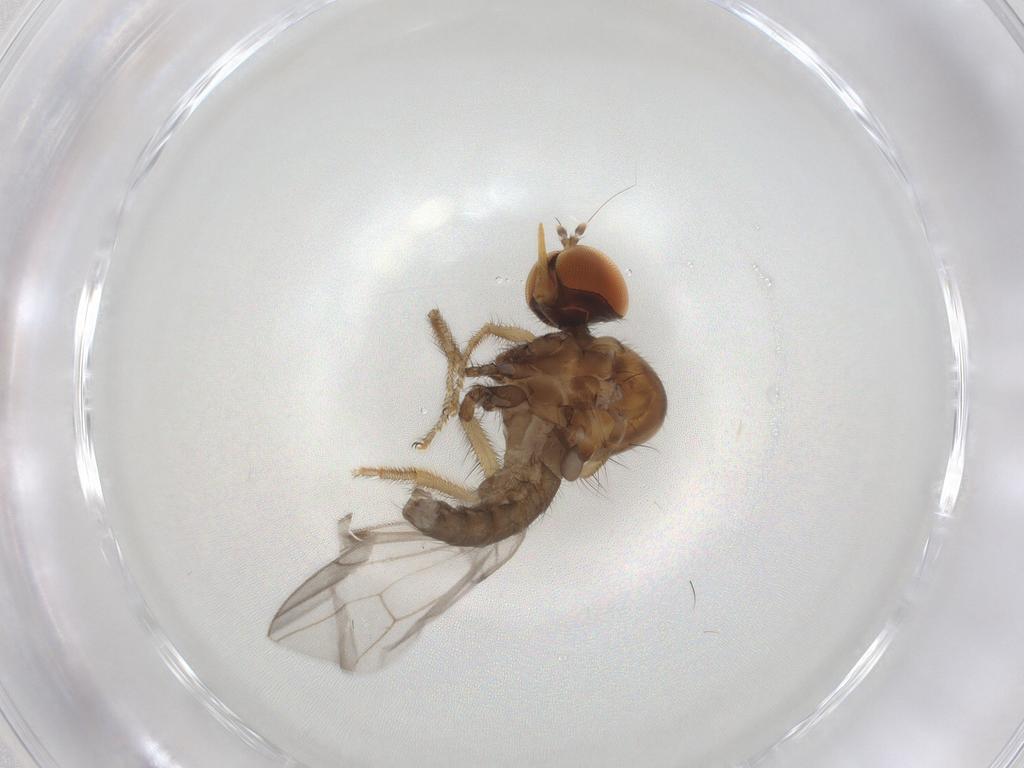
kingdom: Animalia
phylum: Arthropoda
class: Insecta
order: Diptera
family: Hybotidae
